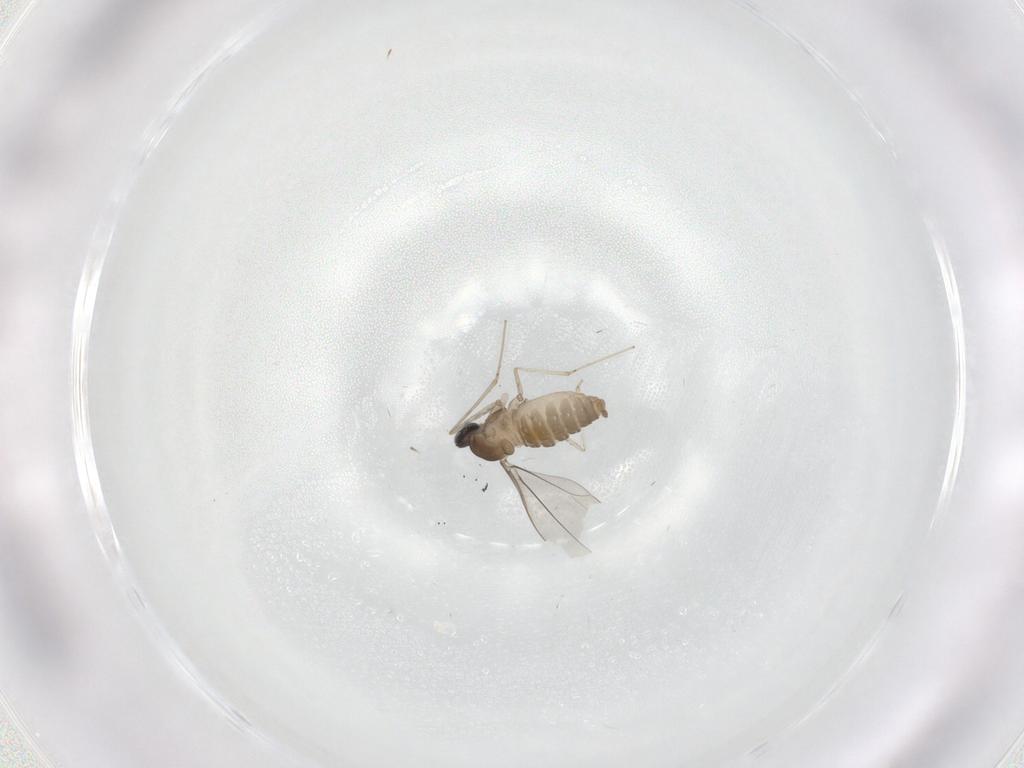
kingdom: Animalia
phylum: Arthropoda
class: Insecta
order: Diptera
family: Cecidomyiidae
